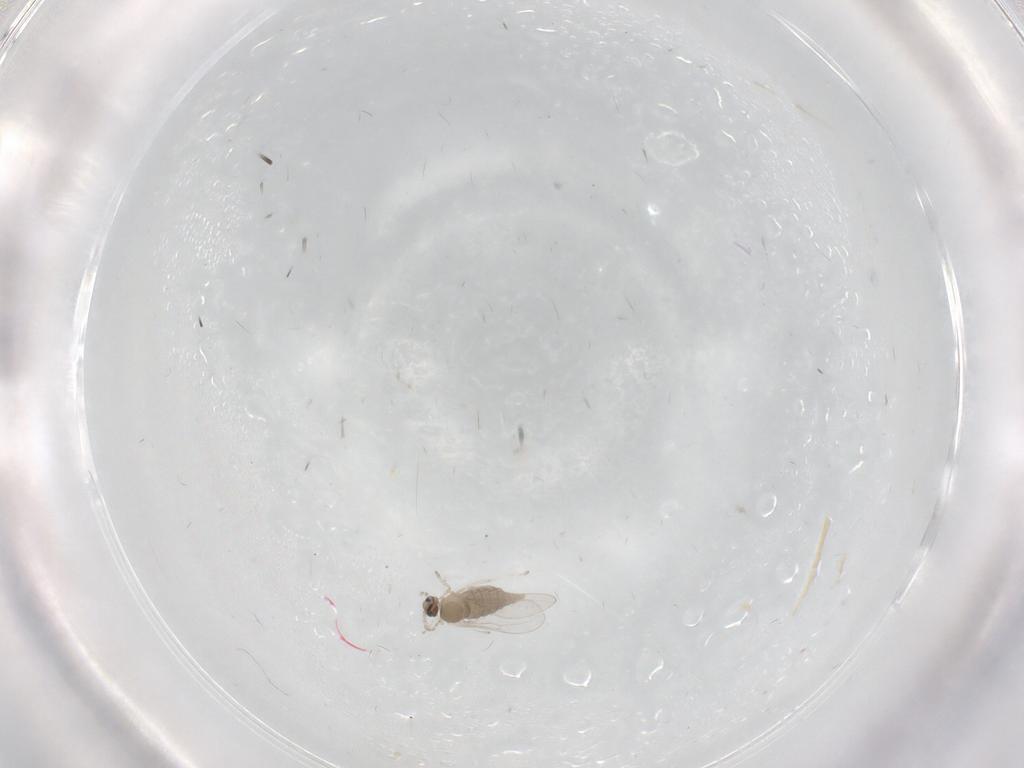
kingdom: Animalia
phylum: Arthropoda
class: Insecta
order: Diptera
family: Cecidomyiidae
